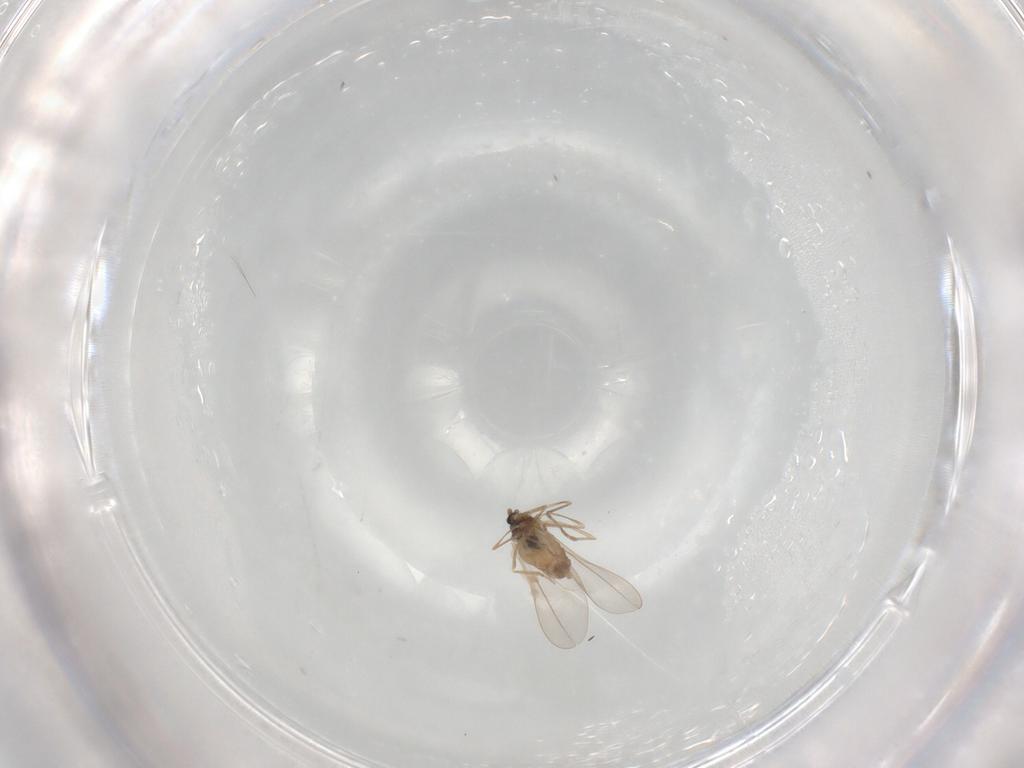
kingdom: Animalia
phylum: Arthropoda
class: Insecta
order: Diptera
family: Cecidomyiidae
